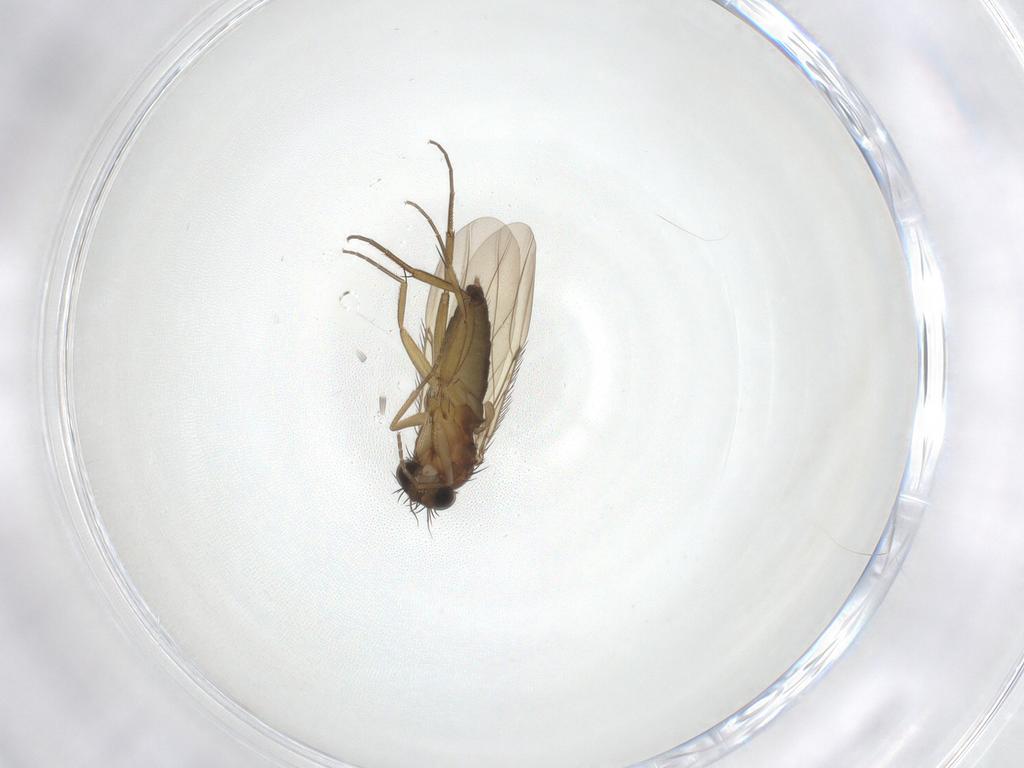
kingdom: Animalia
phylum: Arthropoda
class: Insecta
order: Diptera
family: Phoridae
